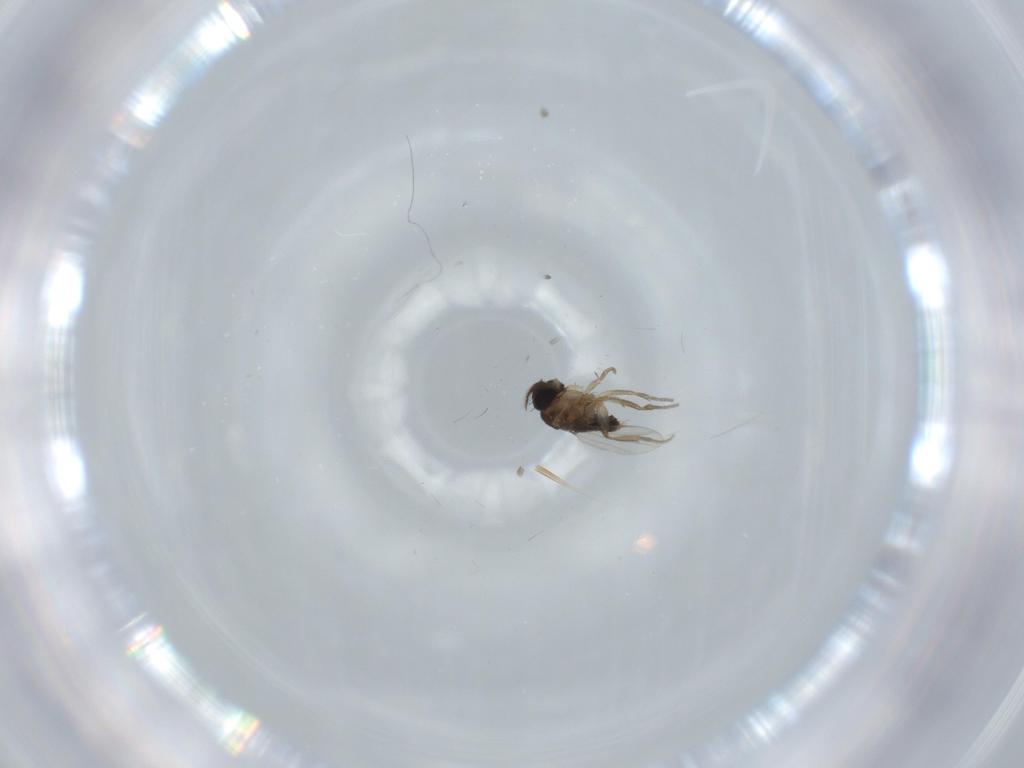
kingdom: Animalia
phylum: Arthropoda
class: Insecta
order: Diptera
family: Phoridae
